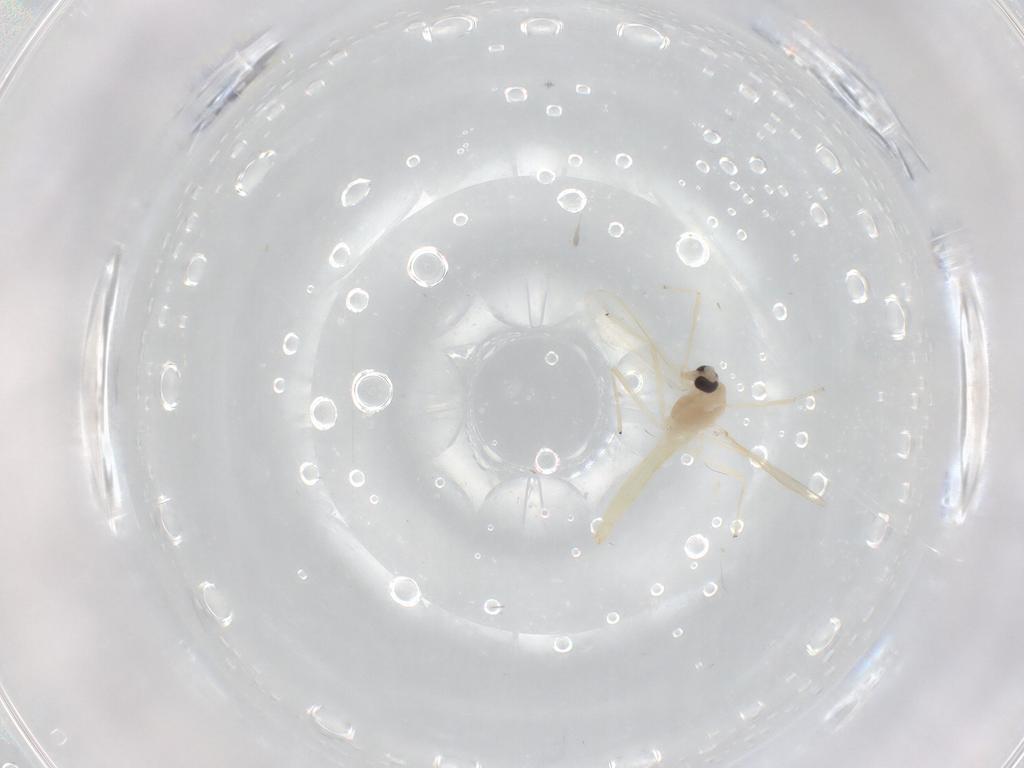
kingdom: Animalia
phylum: Arthropoda
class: Insecta
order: Diptera
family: Chironomidae
